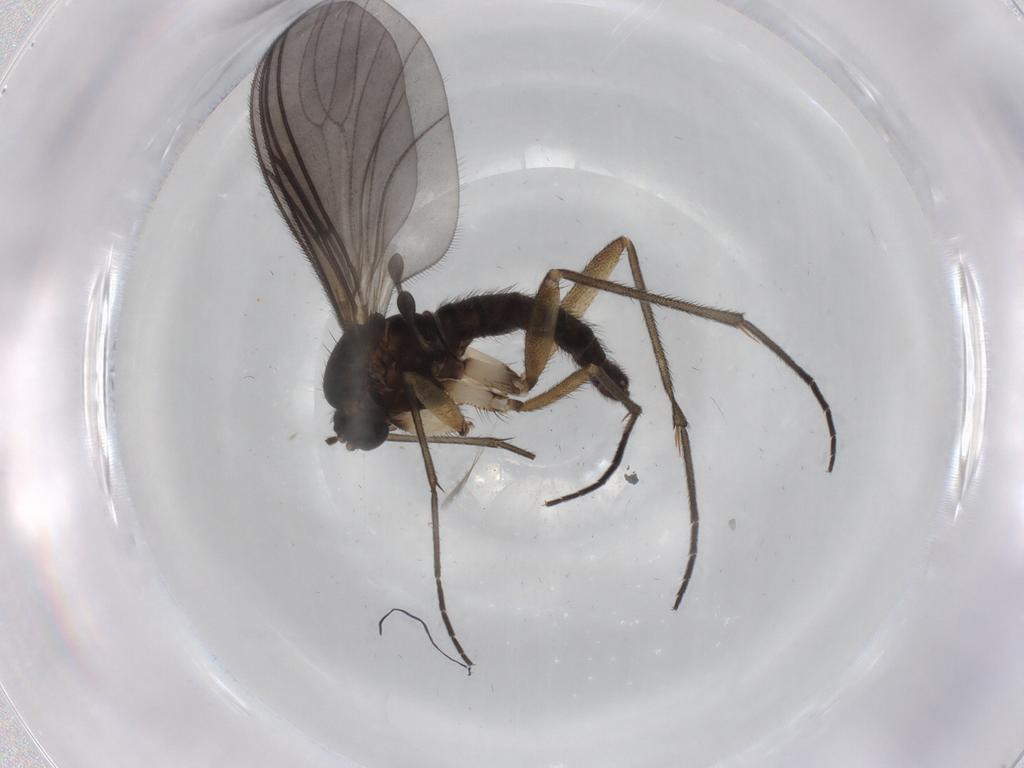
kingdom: Animalia
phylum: Arthropoda
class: Insecta
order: Diptera
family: Sciaridae
